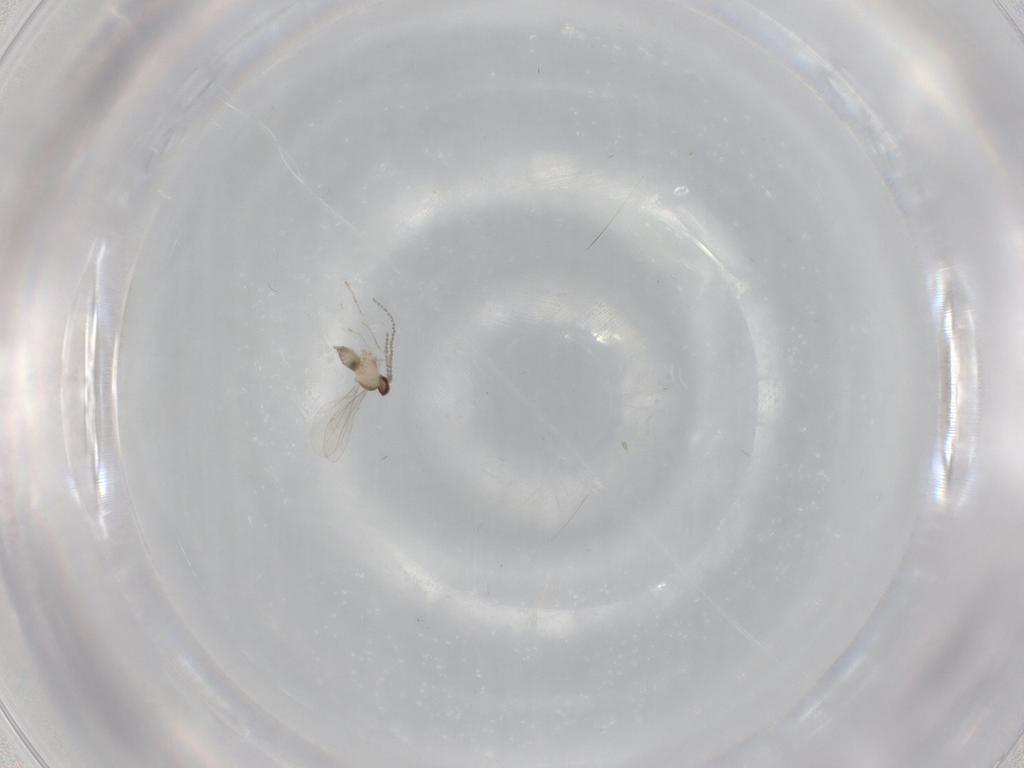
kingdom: Animalia
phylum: Arthropoda
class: Insecta
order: Diptera
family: Cecidomyiidae
